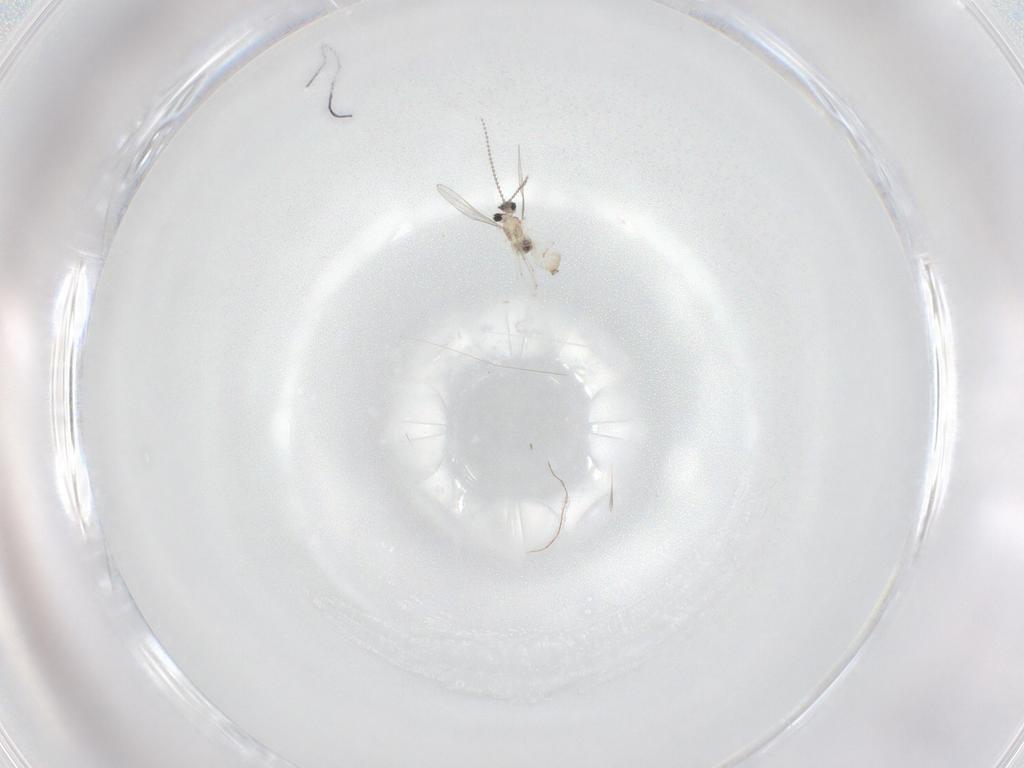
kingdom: Animalia
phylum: Arthropoda
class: Insecta
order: Diptera
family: Cecidomyiidae
